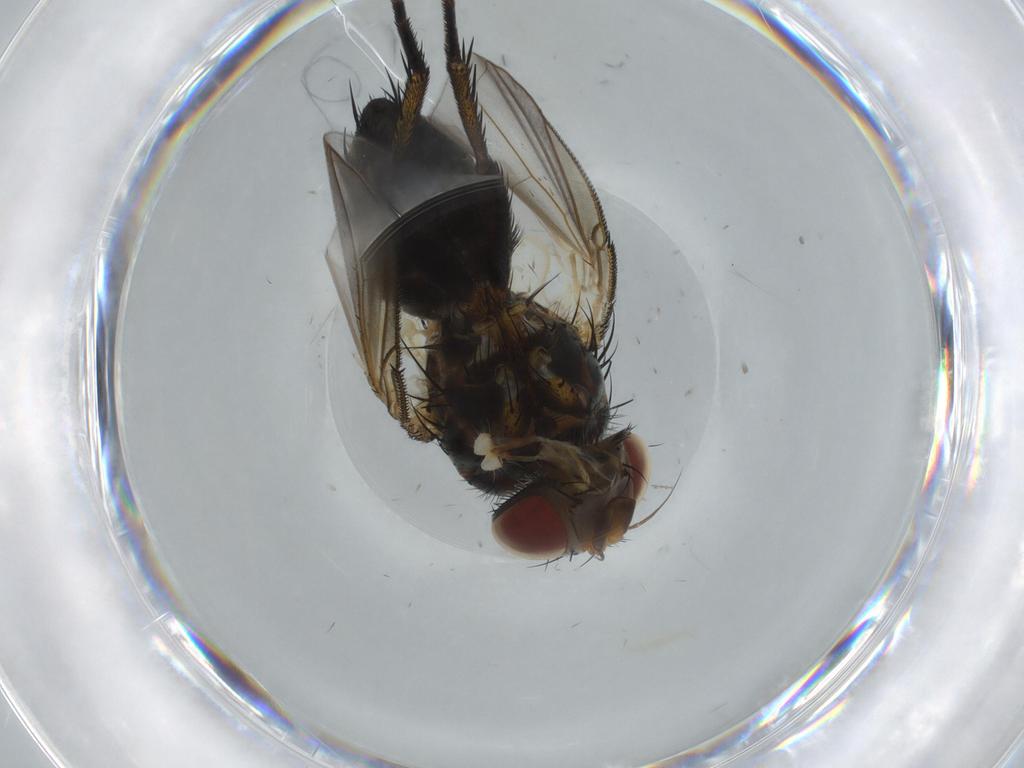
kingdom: Animalia
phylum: Arthropoda
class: Insecta
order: Diptera
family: Tachinidae
